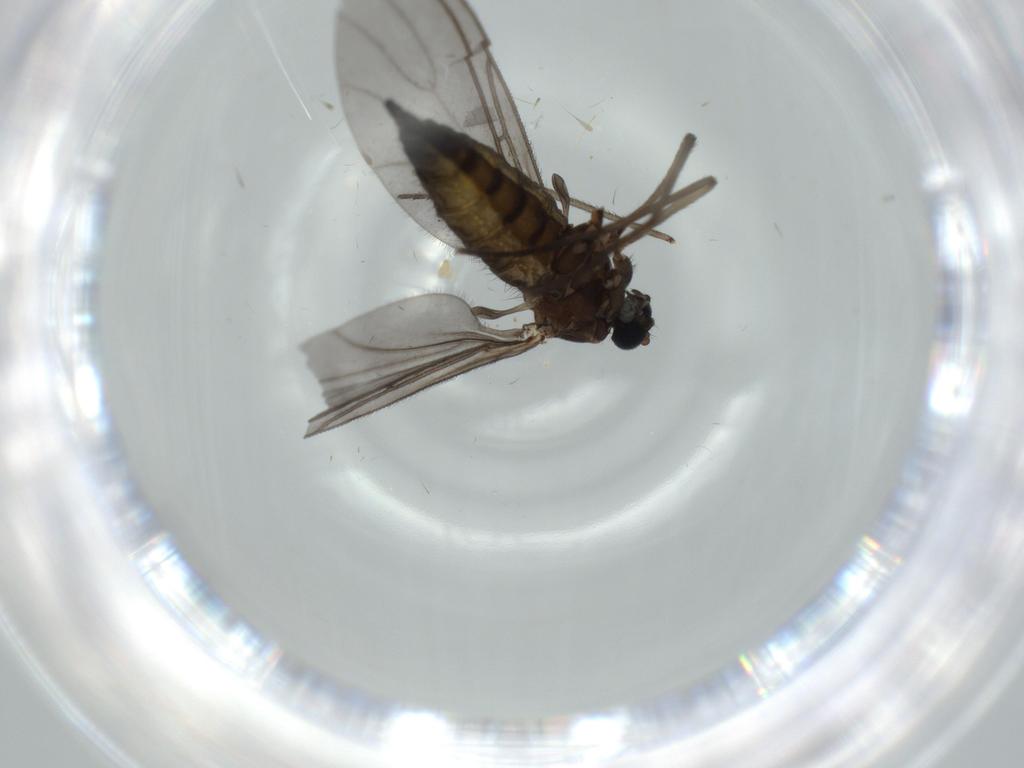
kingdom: Animalia
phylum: Arthropoda
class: Insecta
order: Diptera
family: Sciaridae
